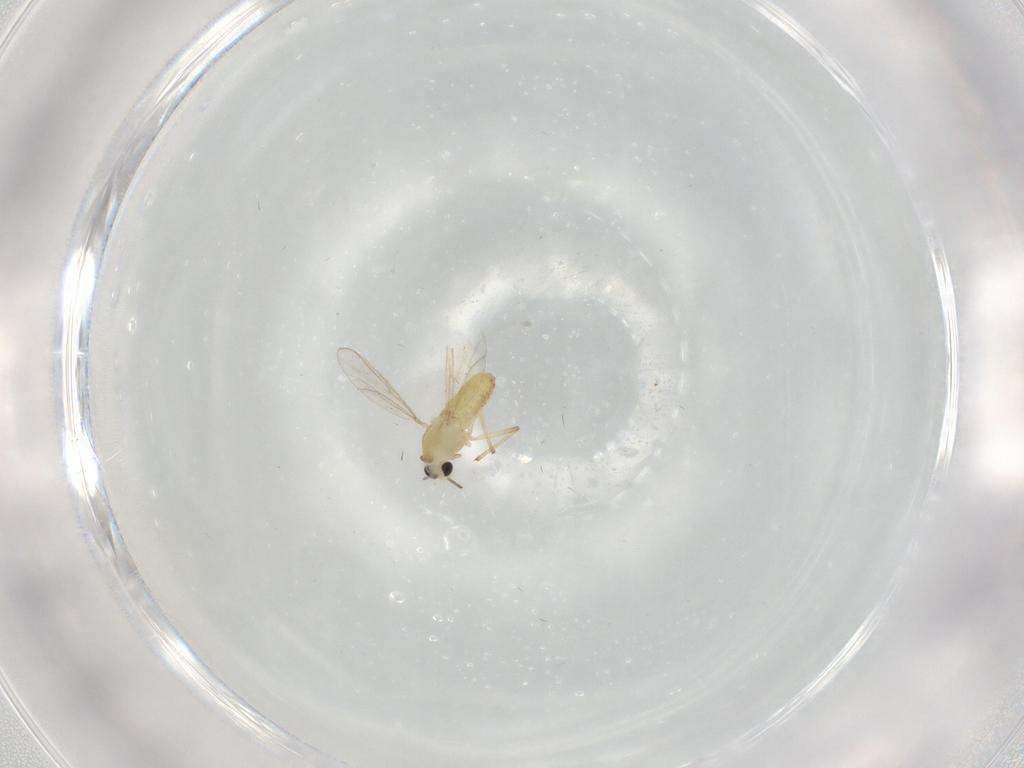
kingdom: Animalia
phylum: Arthropoda
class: Insecta
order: Diptera
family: Chironomidae
